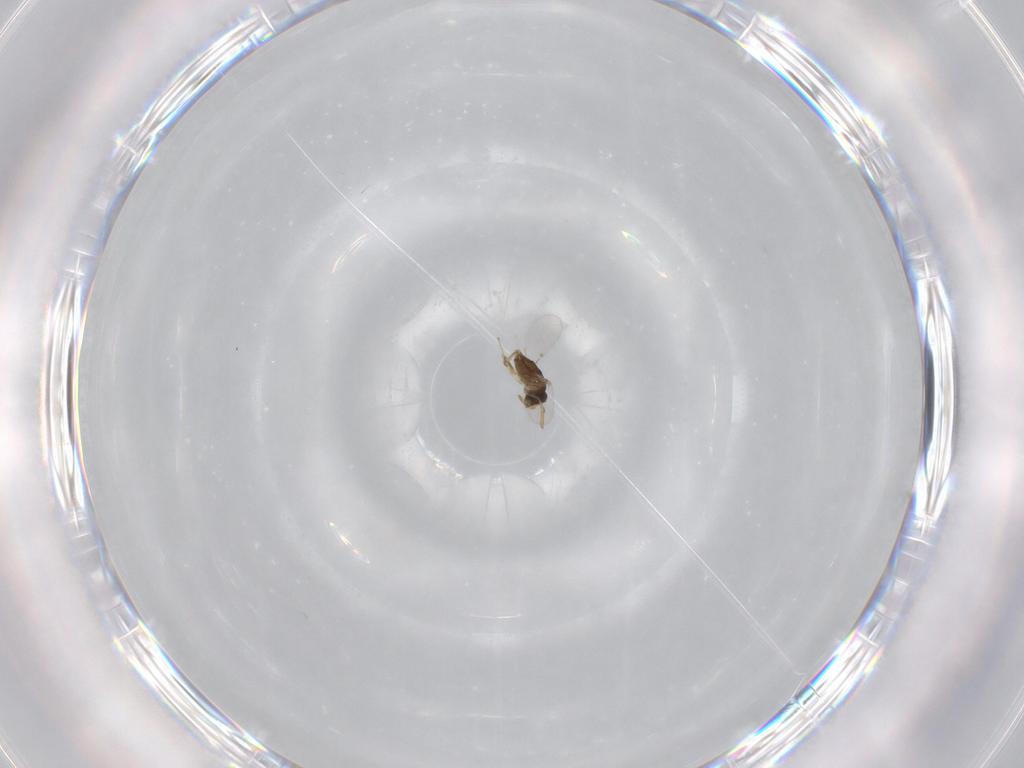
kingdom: Animalia
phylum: Arthropoda
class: Insecta
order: Hymenoptera
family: Encyrtidae
